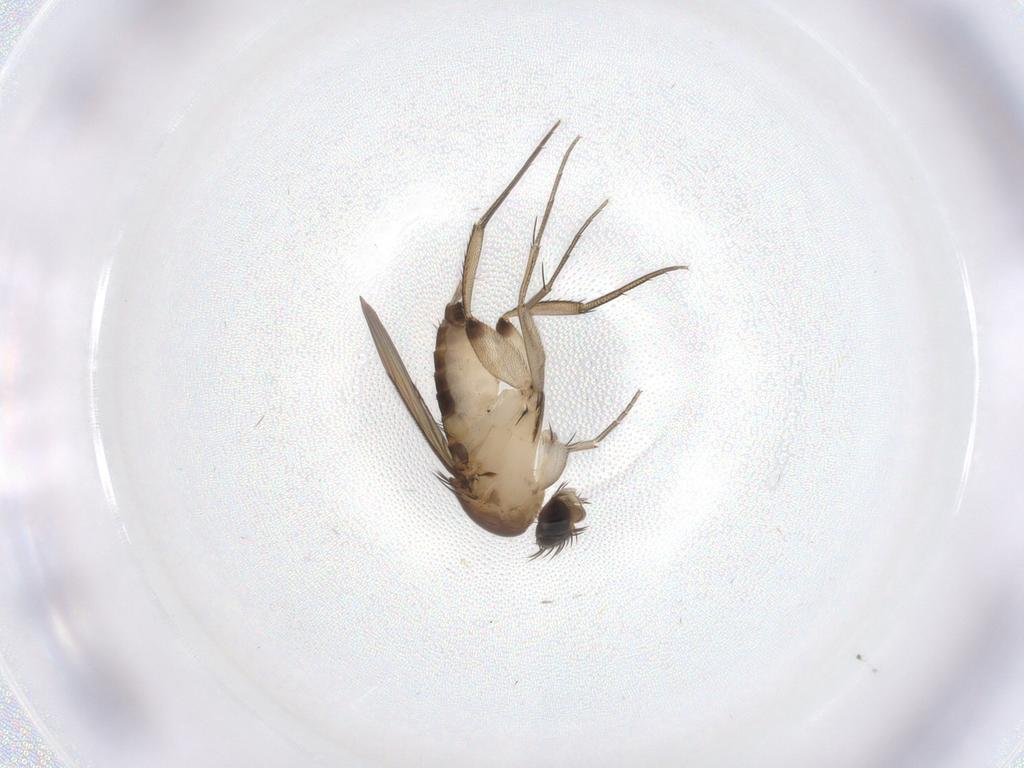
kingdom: Animalia
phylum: Arthropoda
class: Insecta
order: Diptera
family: Phoridae
